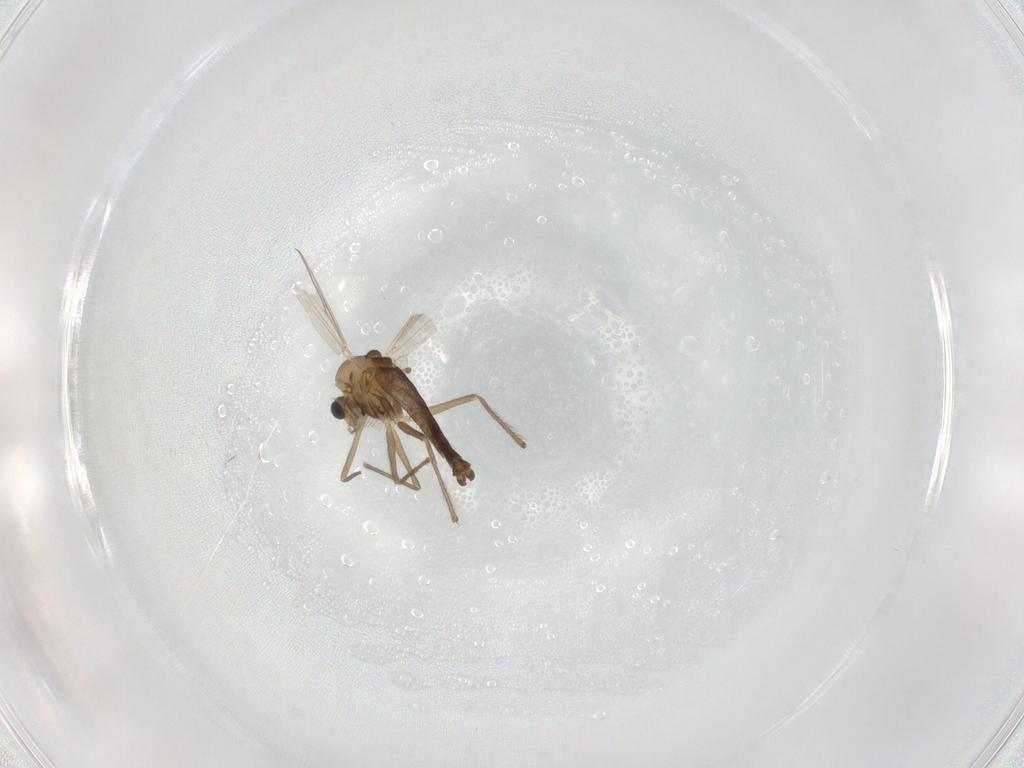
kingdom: Animalia
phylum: Arthropoda
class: Insecta
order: Diptera
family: Chironomidae
